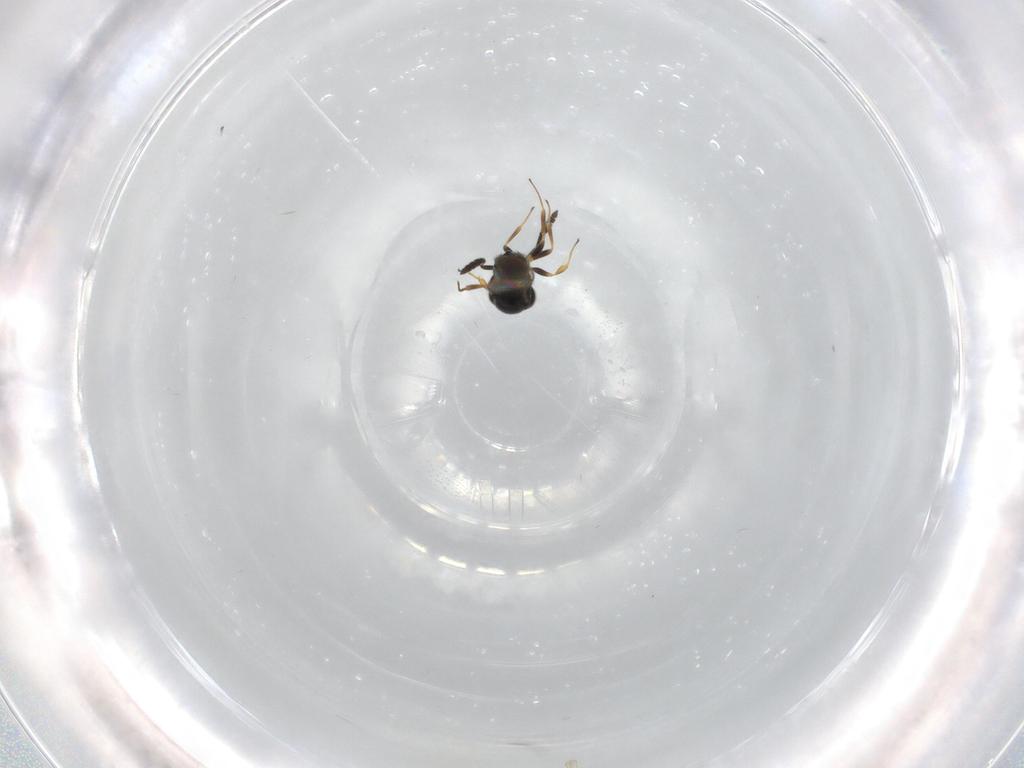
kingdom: Animalia
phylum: Arthropoda
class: Insecta
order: Hymenoptera
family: Scelionidae
